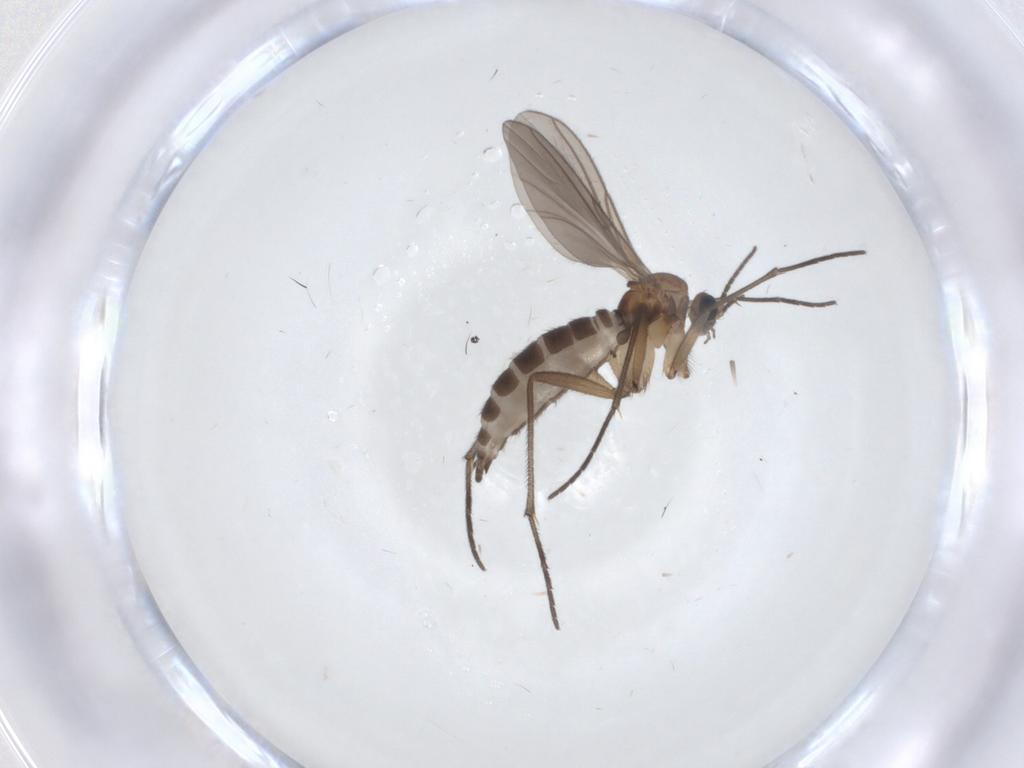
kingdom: Animalia
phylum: Arthropoda
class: Insecta
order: Diptera
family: Sciaridae
